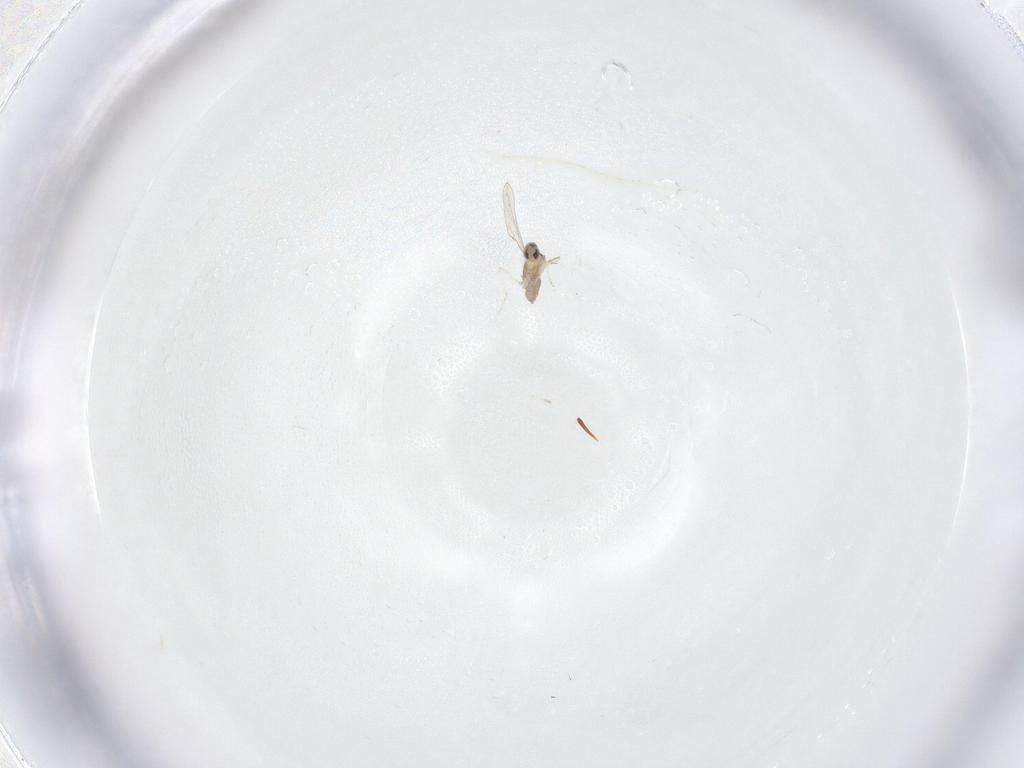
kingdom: Animalia
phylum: Arthropoda
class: Insecta
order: Diptera
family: Cecidomyiidae
